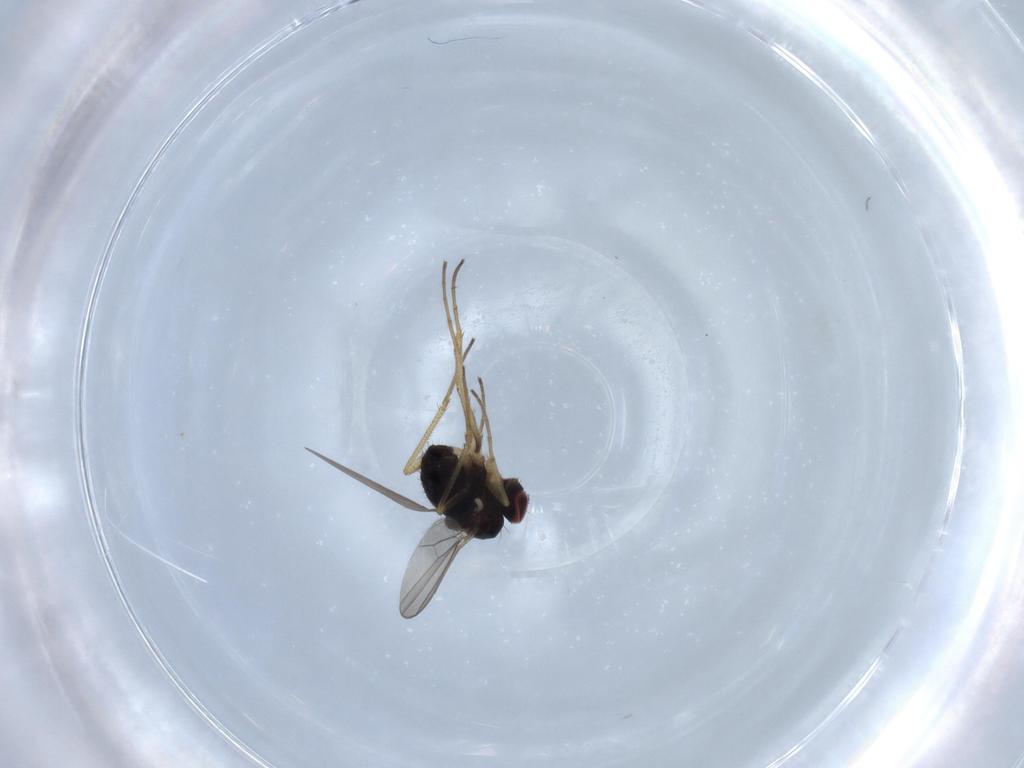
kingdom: Animalia
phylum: Arthropoda
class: Insecta
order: Diptera
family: Dolichopodidae
